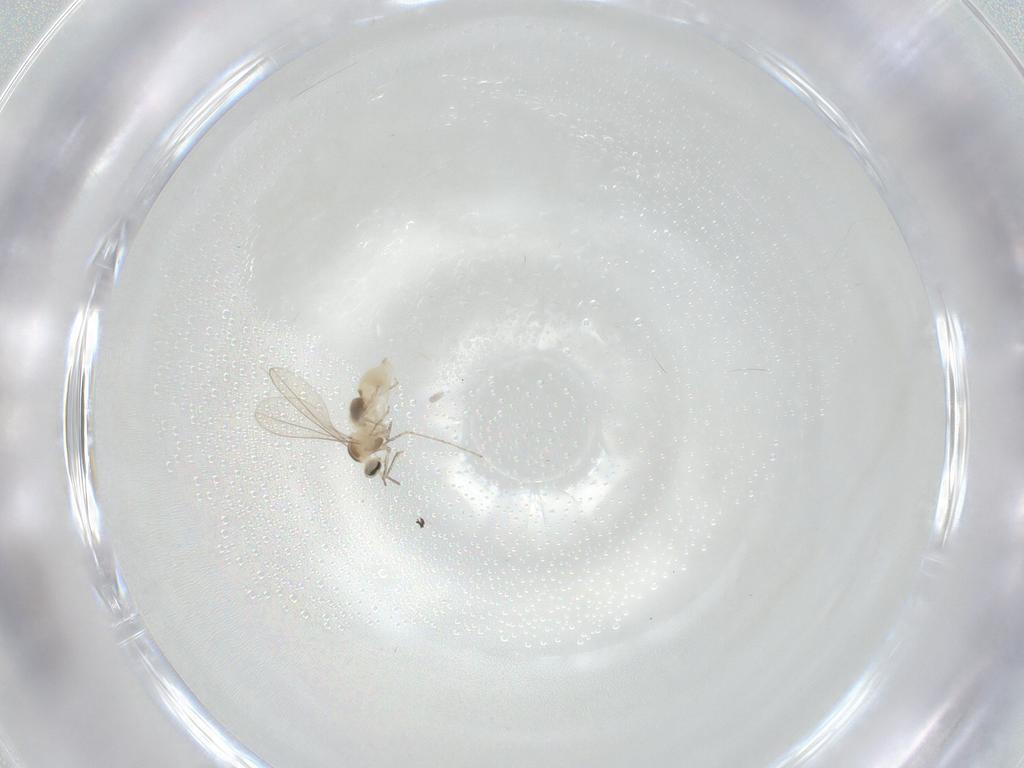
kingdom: Animalia
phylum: Arthropoda
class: Insecta
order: Diptera
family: Cecidomyiidae
